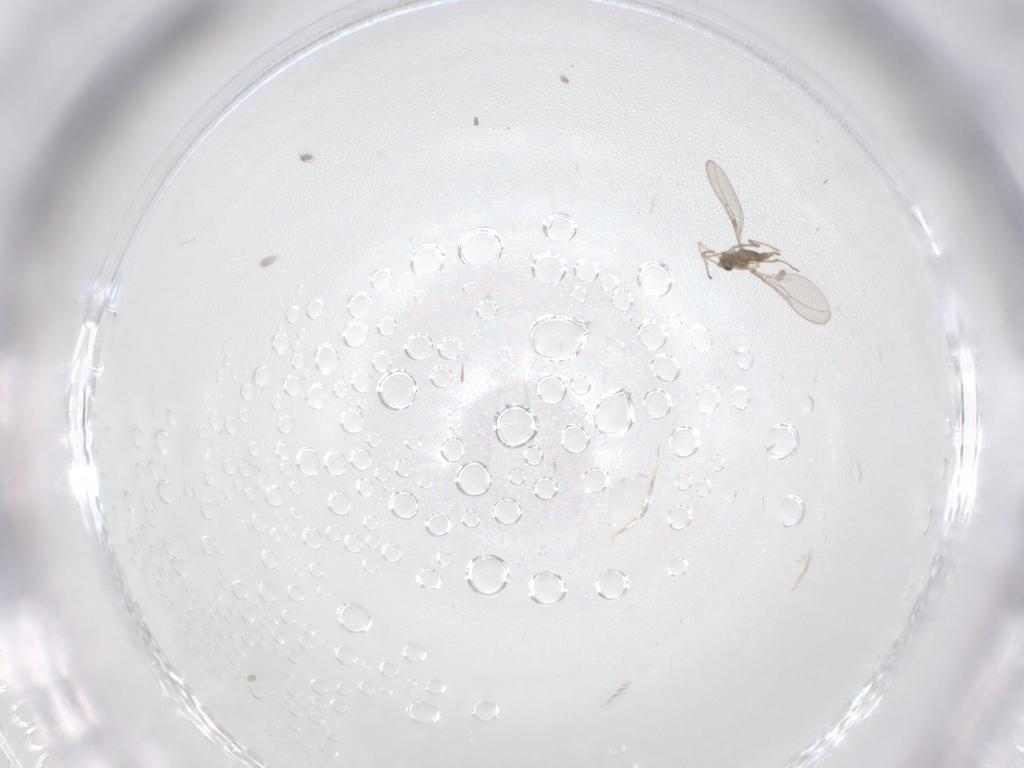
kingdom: Animalia
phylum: Arthropoda
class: Insecta
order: Diptera
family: Cecidomyiidae
